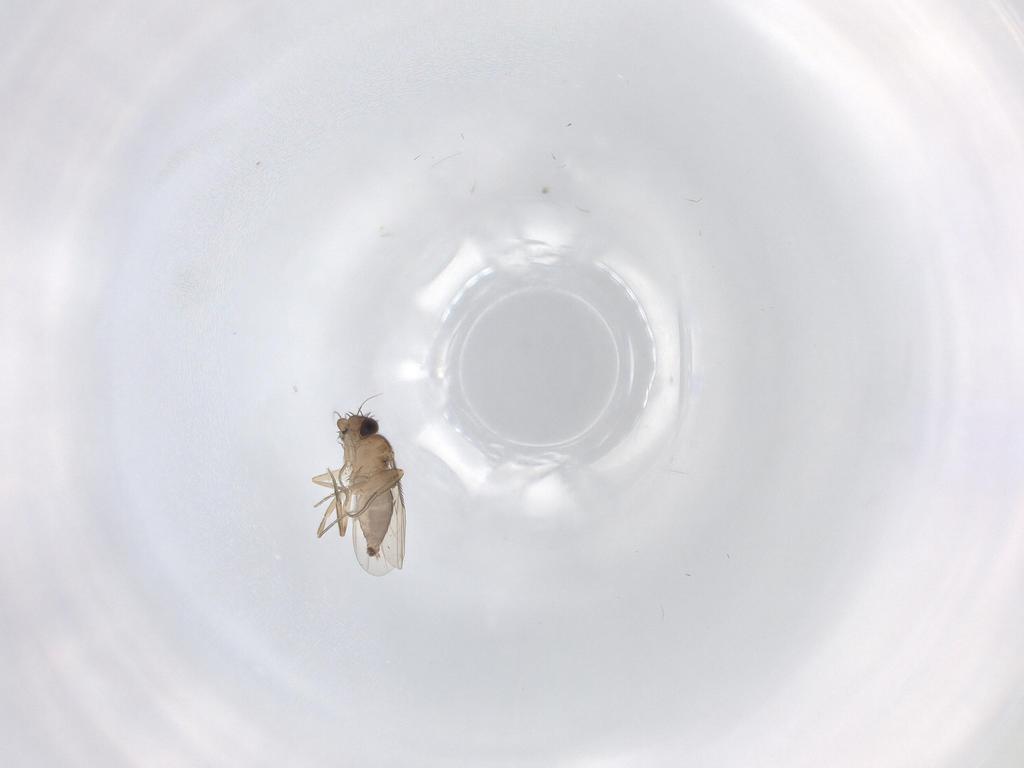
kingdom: Animalia
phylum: Arthropoda
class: Insecta
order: Diptera
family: Phoridae
